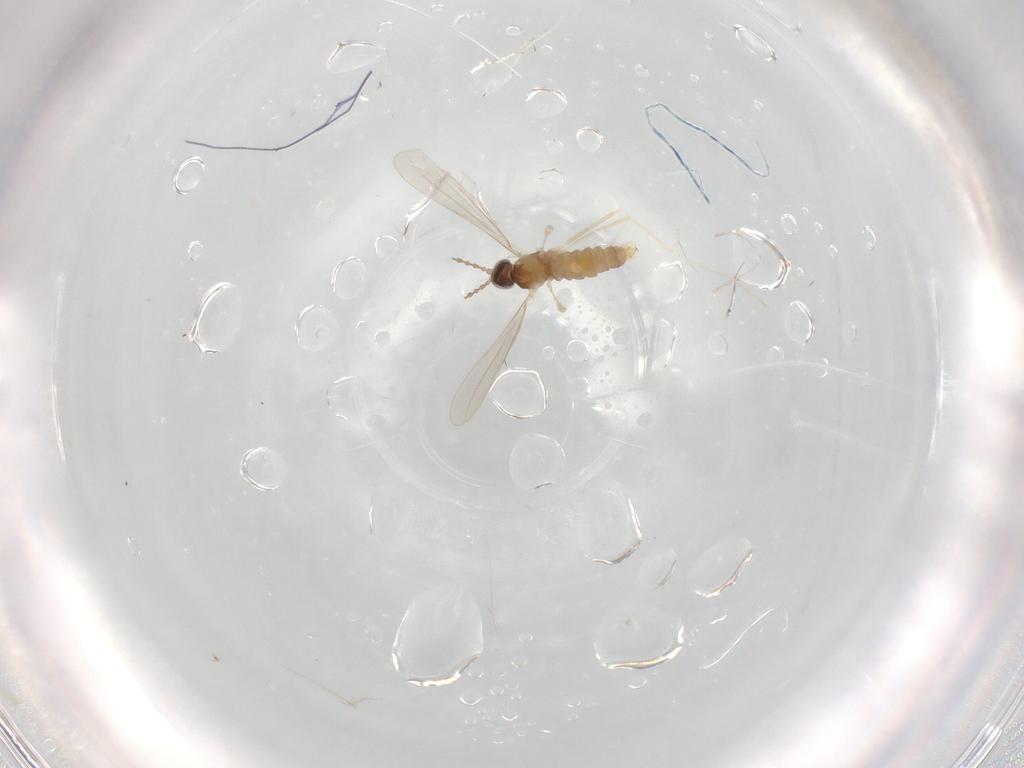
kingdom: Animalia
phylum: Arthropoda
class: Insecta
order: Diptera
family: Cecidomyiidae
